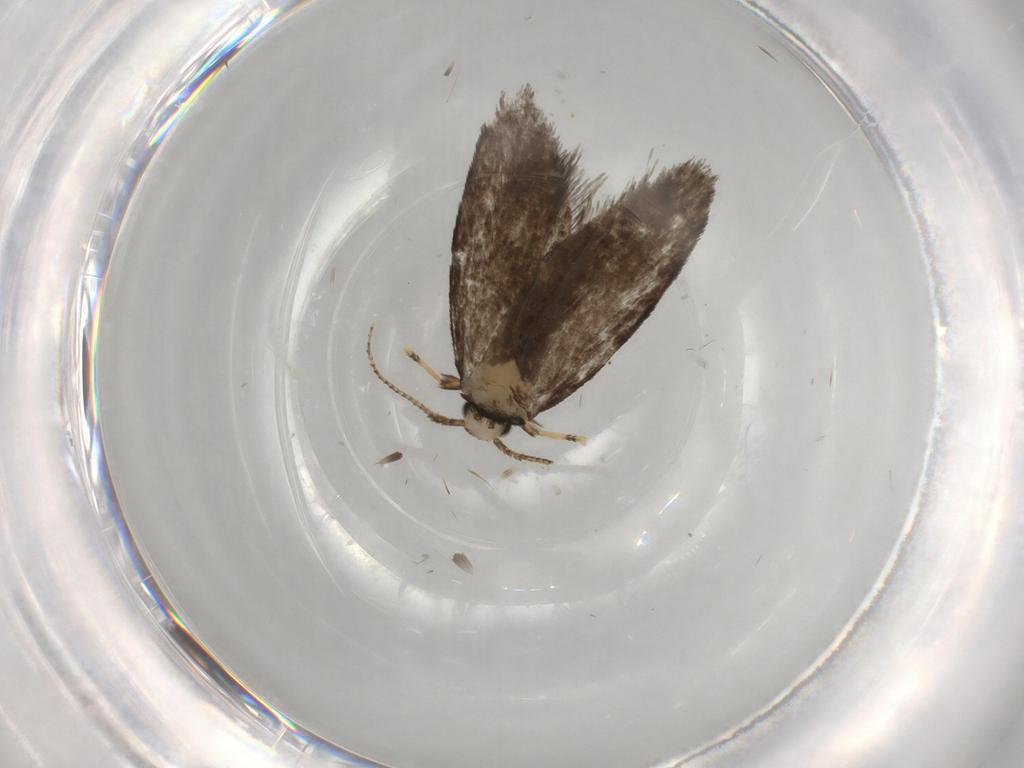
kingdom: Animalia
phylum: Arthropoda
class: Insecta
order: Lepidoptera
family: Psychidae
